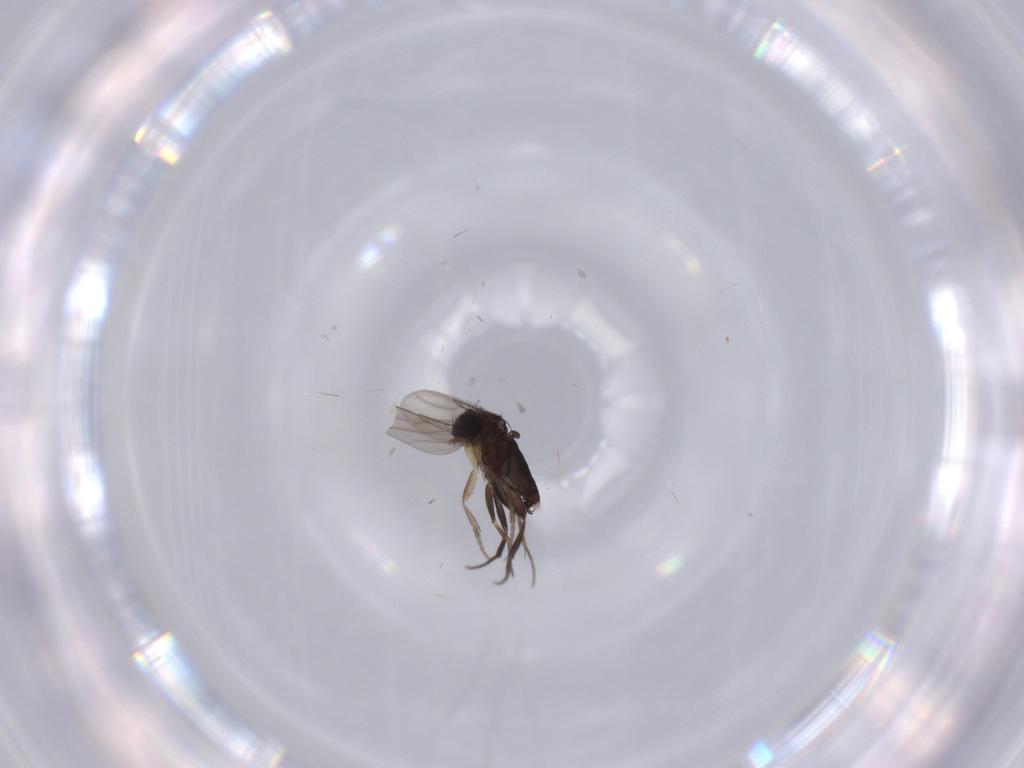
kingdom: Animalia
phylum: Arthropoda
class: Insecta
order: Diptera
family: Phoridae
